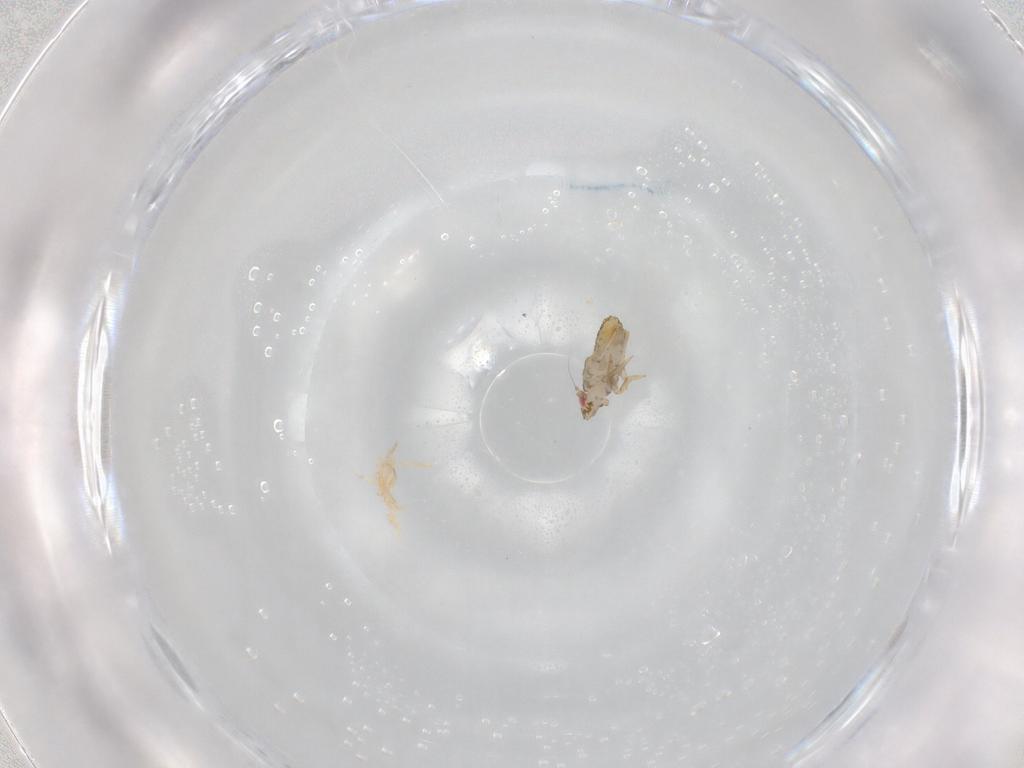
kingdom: Animalia
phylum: Arthropoda
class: Insecta
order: Hemiptera
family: Delphacidae
